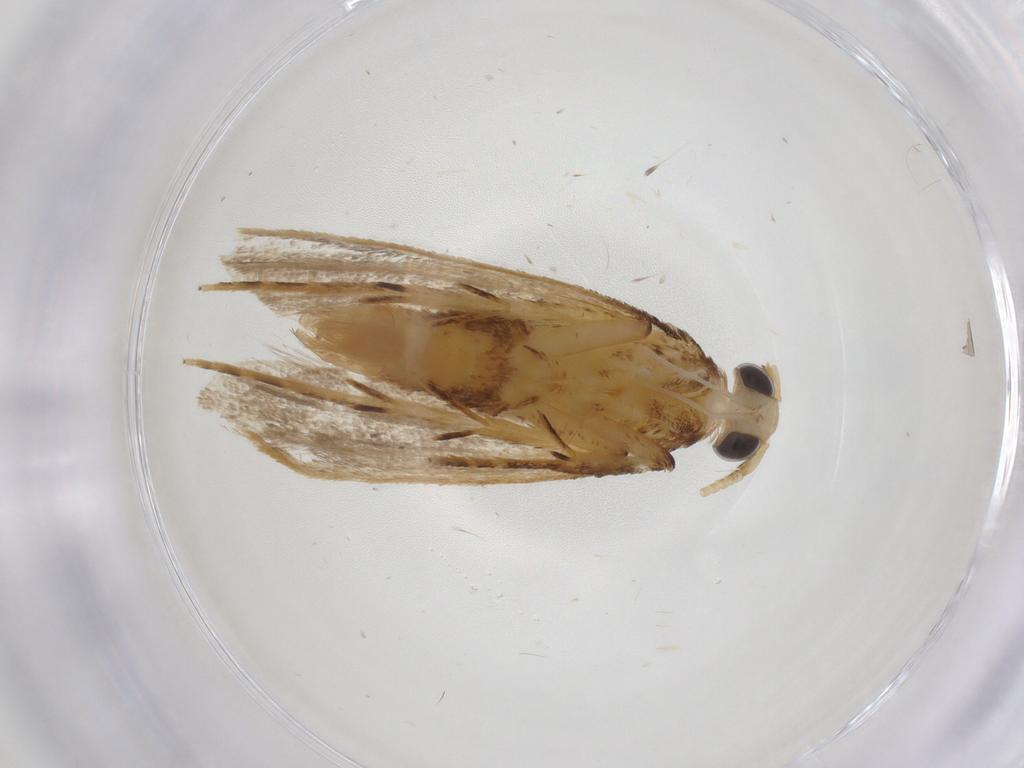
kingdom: Animalia
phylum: Arthropoda
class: Insecta
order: Lepidoptera
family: Lecithoceridae
